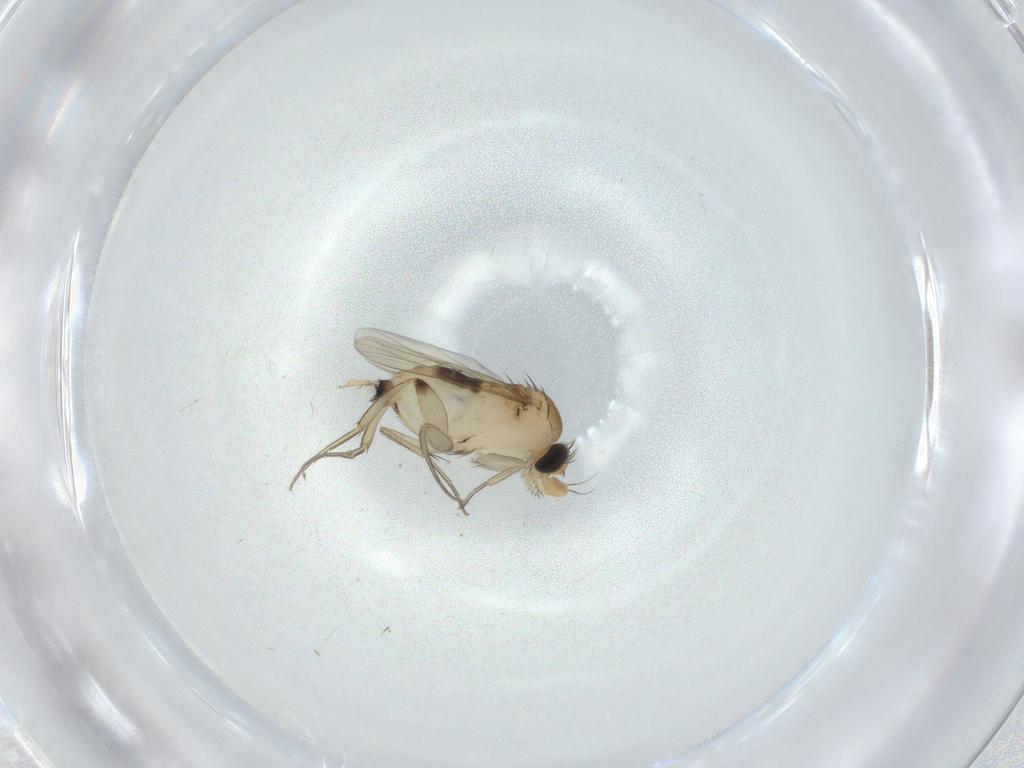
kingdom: Animalia
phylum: Arthropoda
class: Insecta
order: Diptera
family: Phoridae
